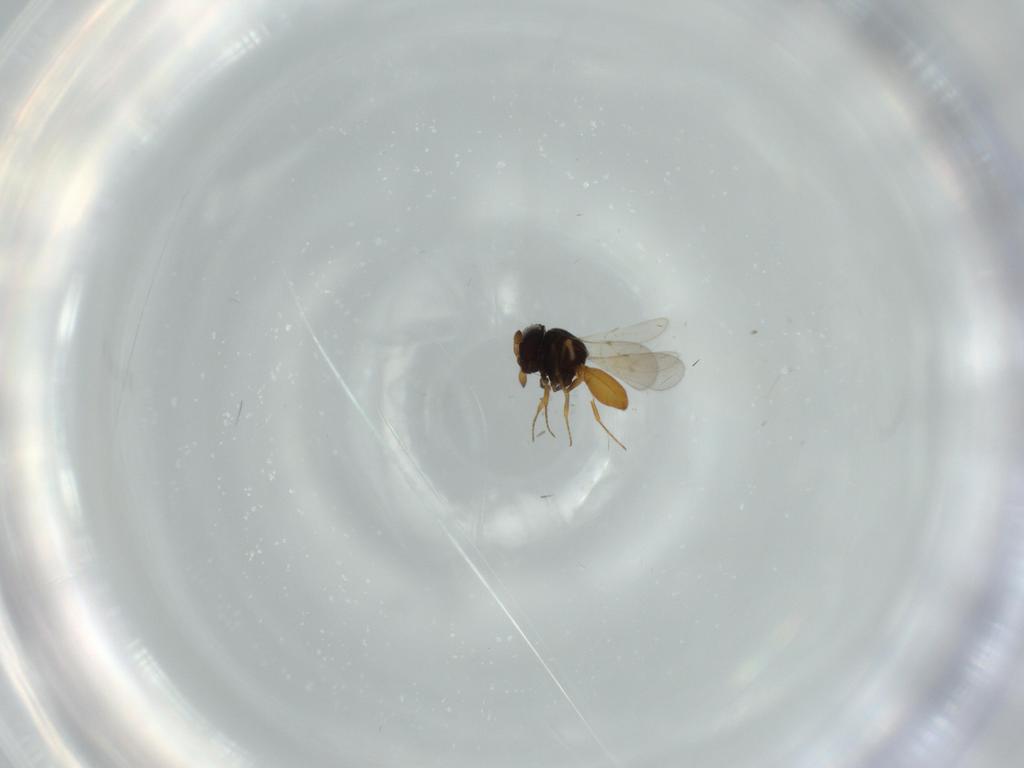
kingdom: Animalia
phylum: Arthropoda
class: Insecta
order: Hymenoptera
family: Scelionidae
